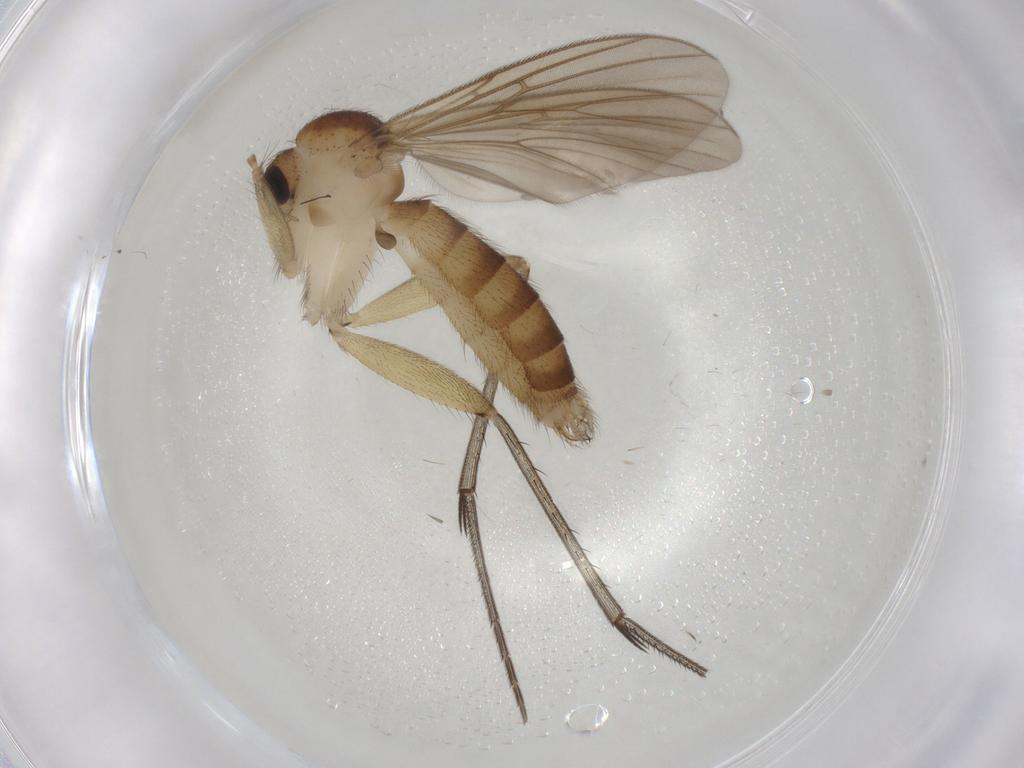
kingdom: Animalia
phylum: Arthropoda
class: Insecta
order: Diptera
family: Mycetophilidae
